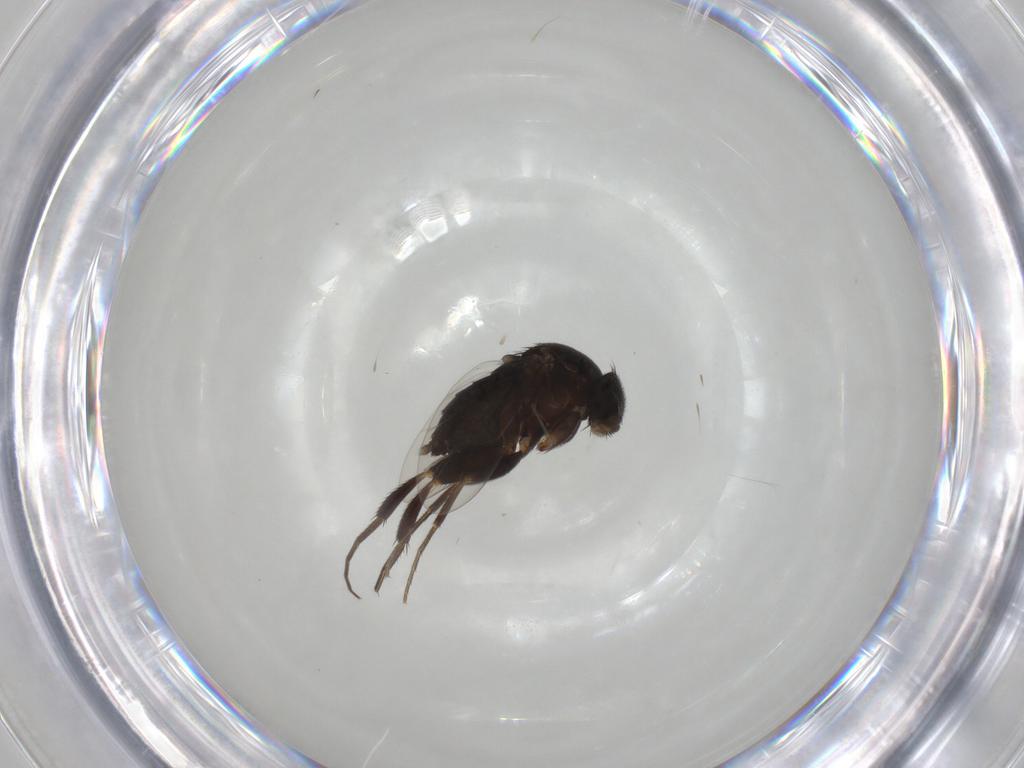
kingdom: Animalia
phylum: Arthropoda
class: Insecta
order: Diptera
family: Phoridae
